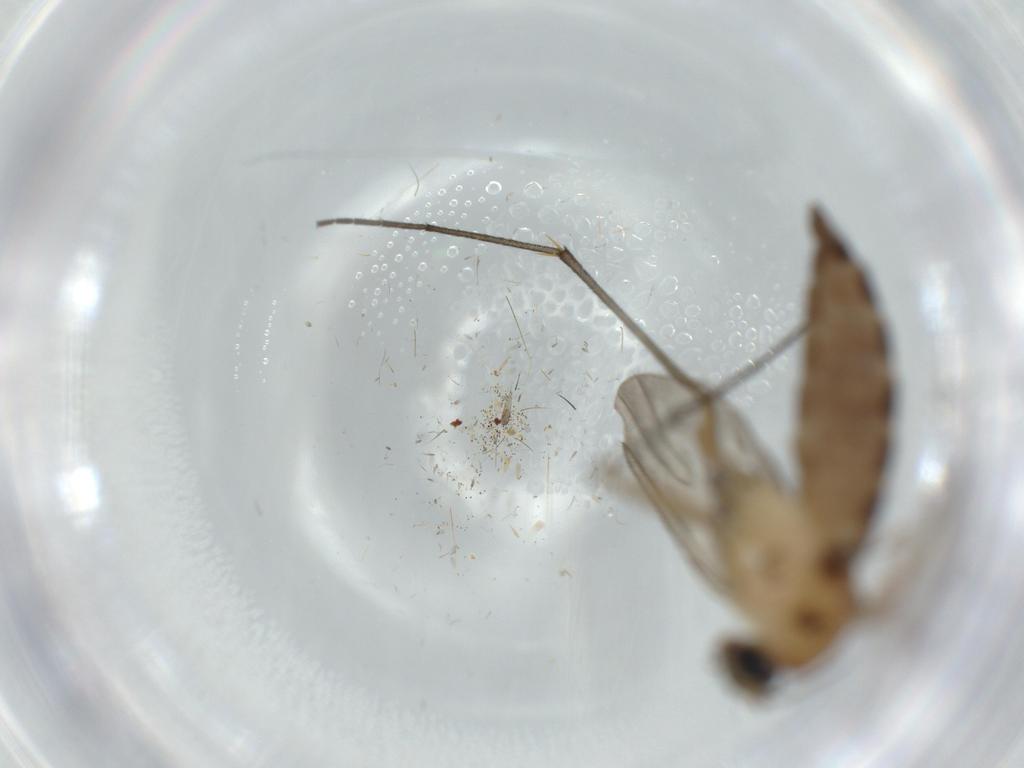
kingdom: Animalia
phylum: Arthropoda
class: Insecta
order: Diptera
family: Sciaridae
